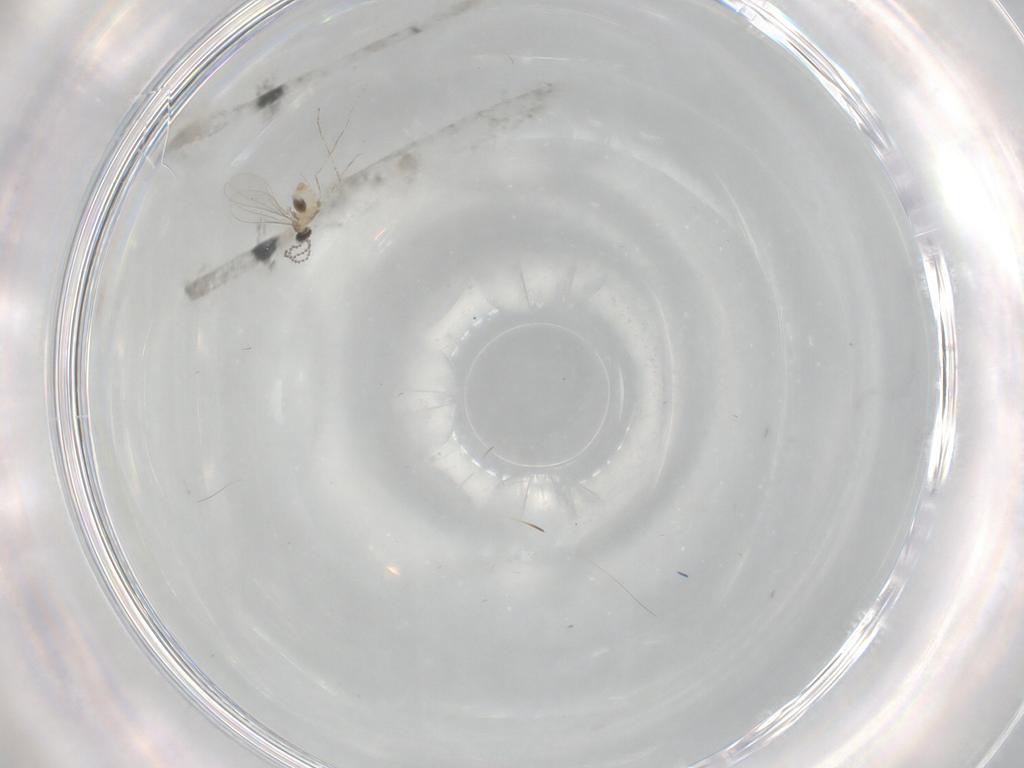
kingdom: Animalia
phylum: Arthropoda
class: Insecta
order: Diptera
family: Cecidomyiidae
